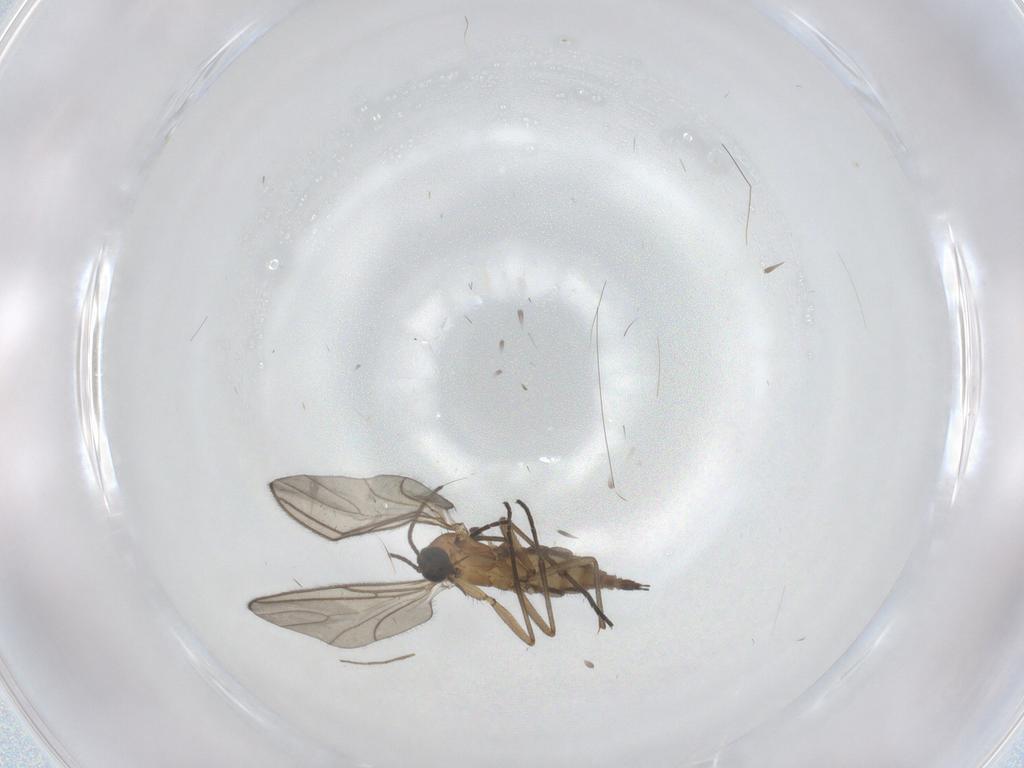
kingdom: Animalia
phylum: Arthropoda
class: Insecta
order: Diptera
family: Sciaridae
